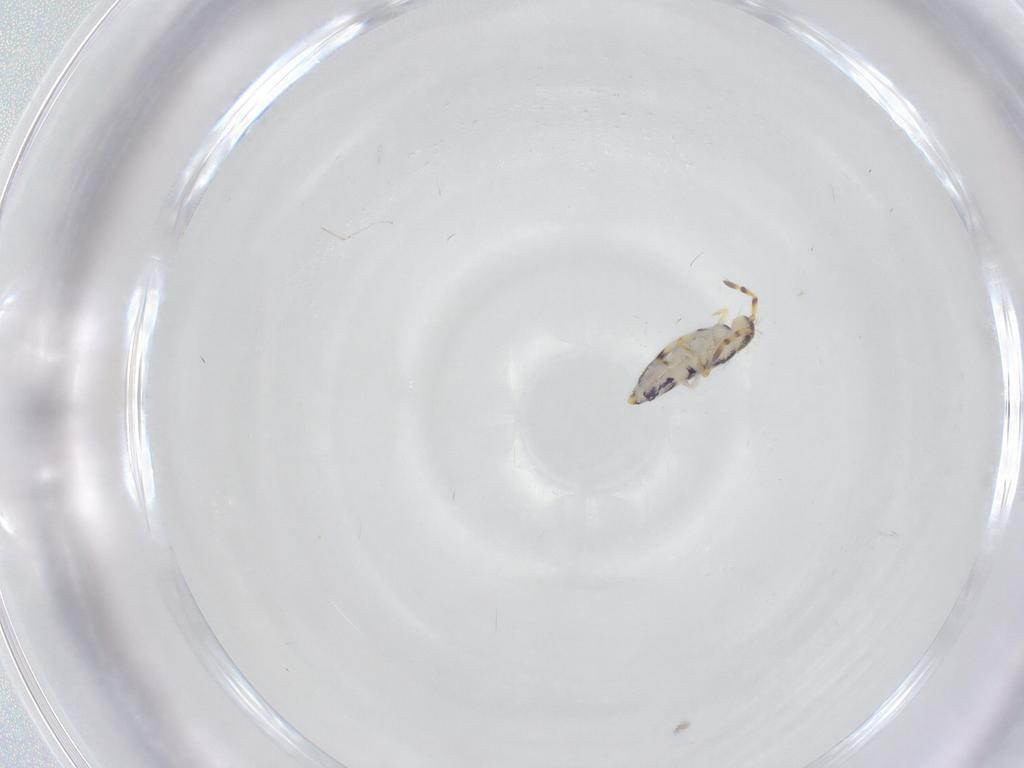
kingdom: Animalia
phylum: Arthropoda
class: Collembola
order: Entomobryomorpha
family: Isotomidae
